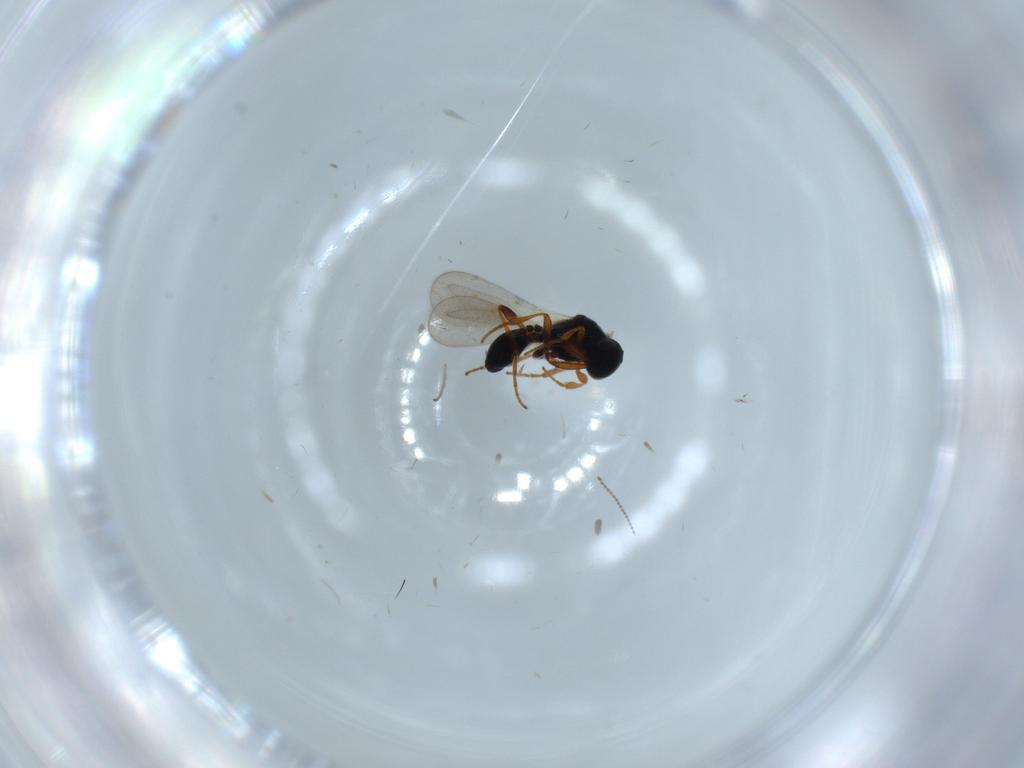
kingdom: Animalia
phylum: Arthropoda
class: Insecta
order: Hymenoptera
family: Platygastridae
